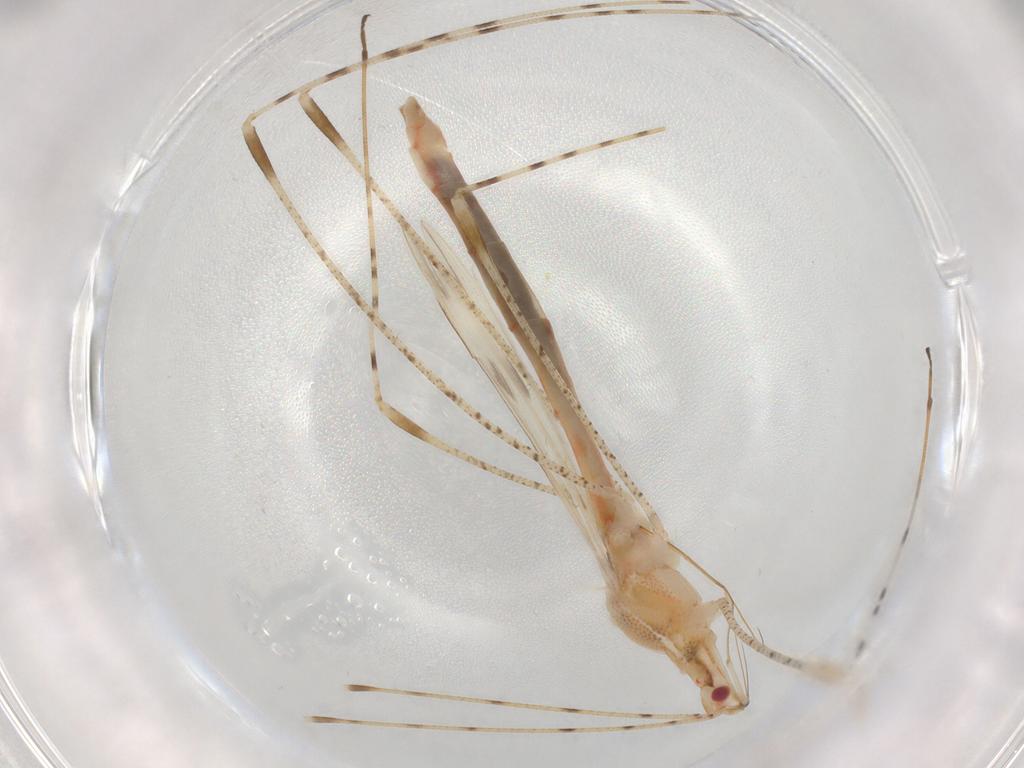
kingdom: Animalia
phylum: Arthropoda
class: Insecta
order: Hemiptera
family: Berytidae
